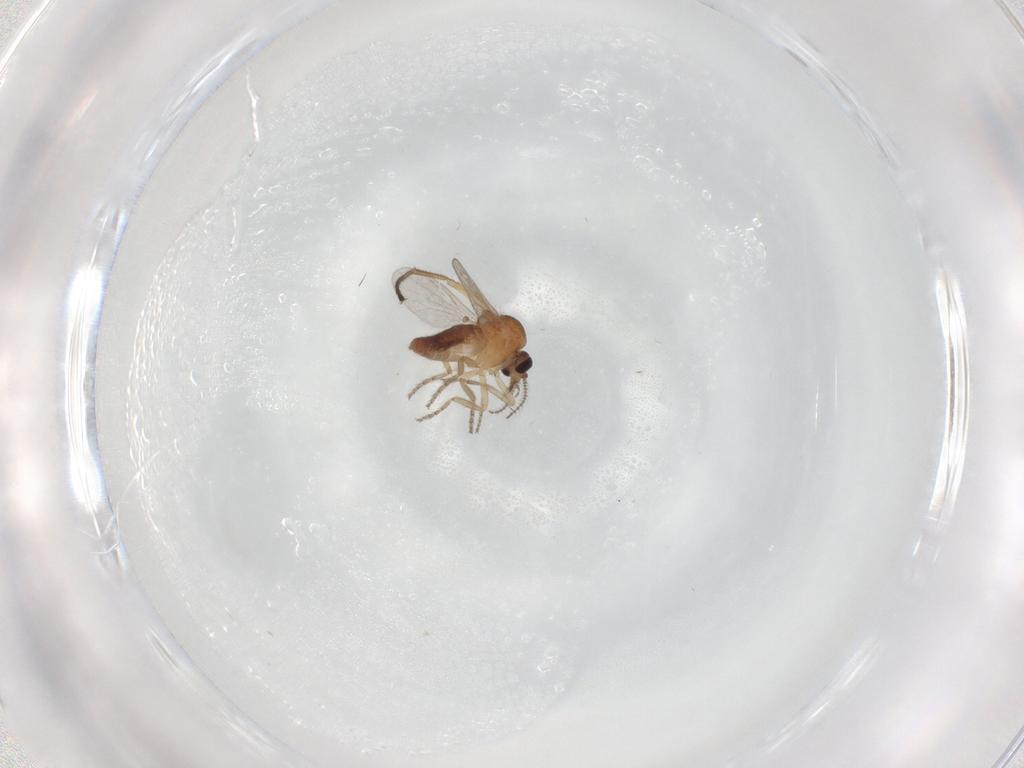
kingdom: Animalia
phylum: Arthropoda
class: Insecta
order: Diptera
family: Ceratopogonidae
